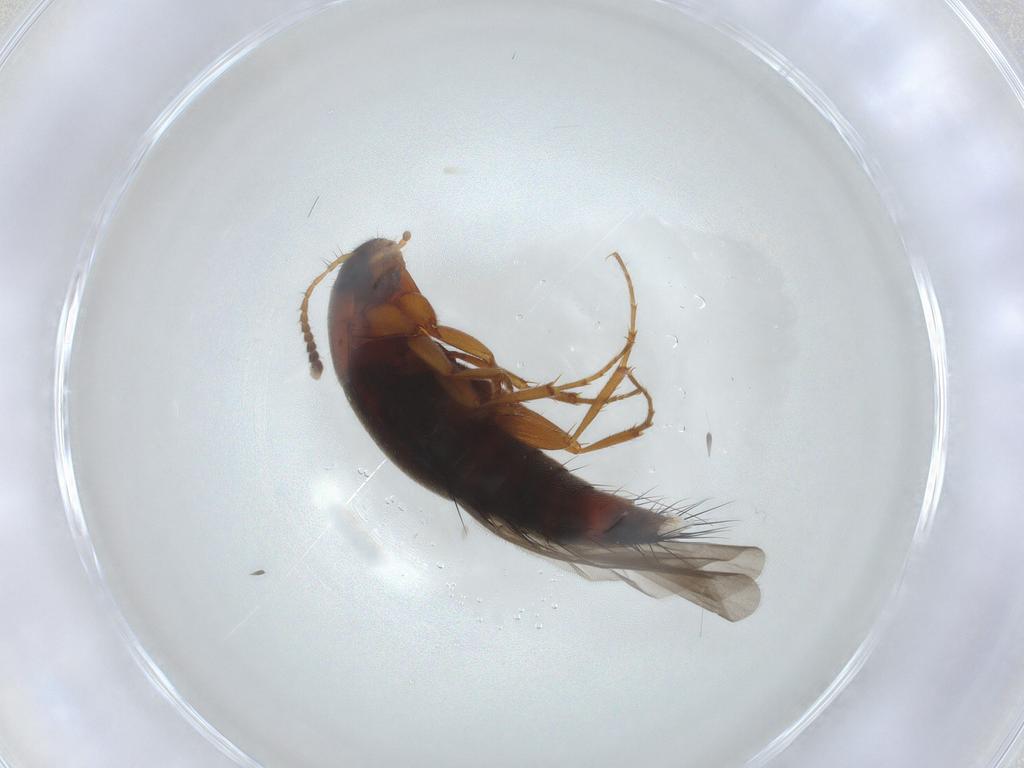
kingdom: Animalia
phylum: Arthropoda
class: Insecta
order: Coleoptera
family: Staphylinidae
